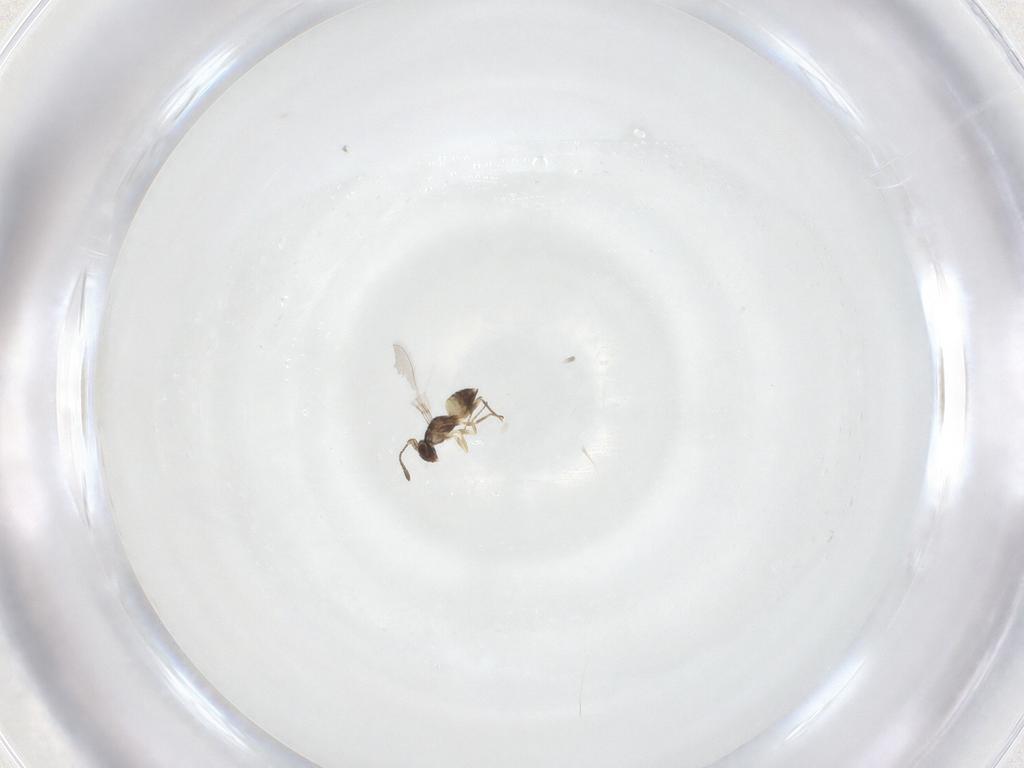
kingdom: Animalia
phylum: Arthropoda
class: Insecta
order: Hymenoptera
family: Mymaridae
